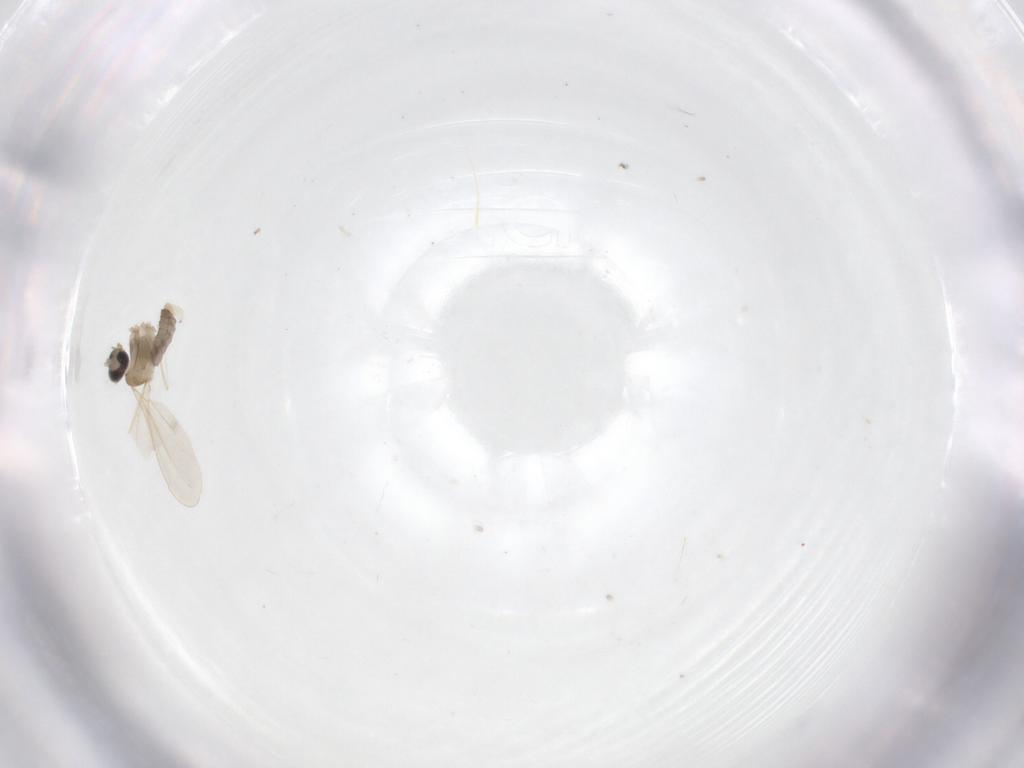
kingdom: Animalia
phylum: Arthropoda
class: Insecta
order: Diptera
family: Cecidomyiidae
